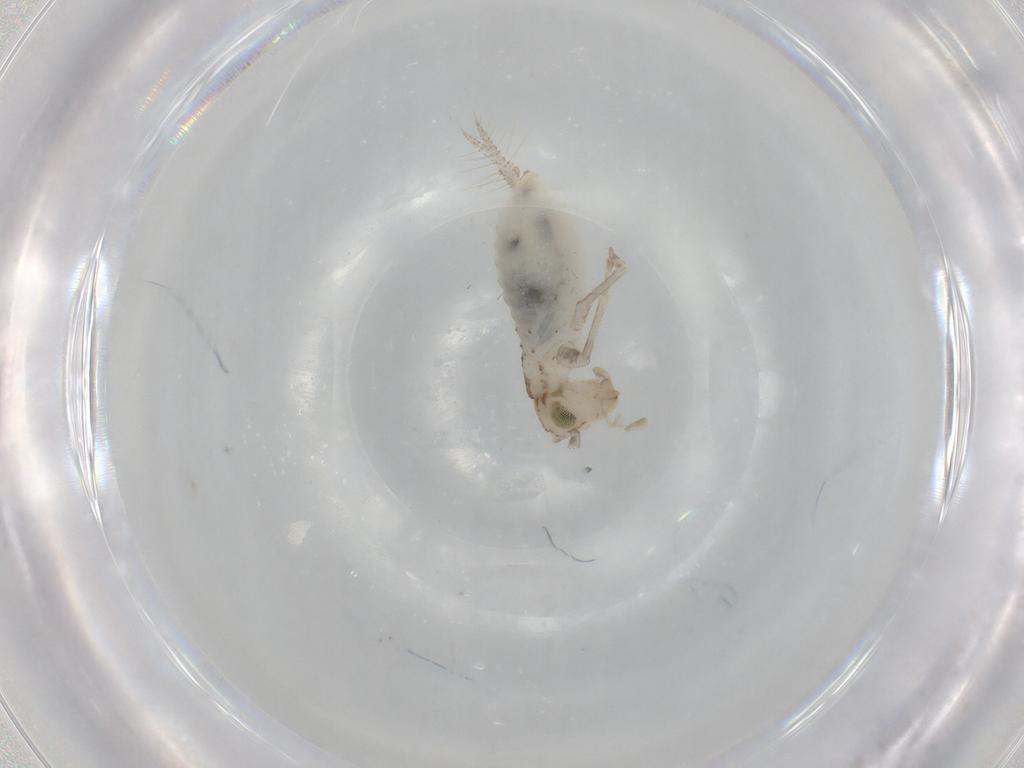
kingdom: Animalia
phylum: Arthropoda
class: Insecta
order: Orthoptera
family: Trigonidiidae
